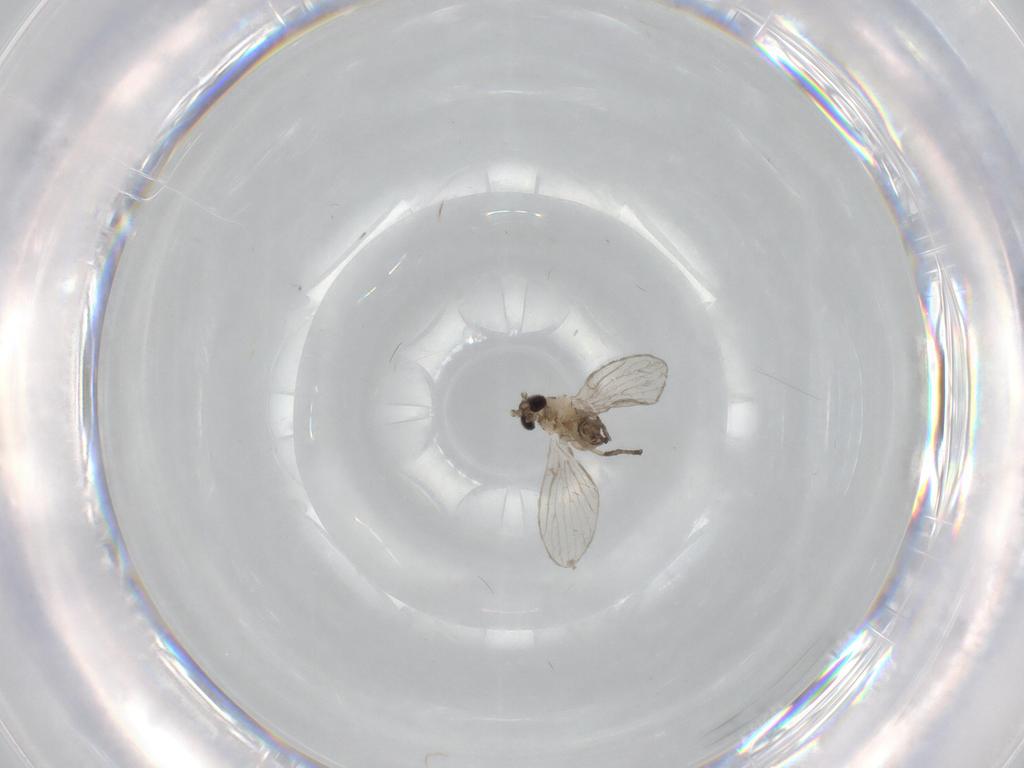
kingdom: Animalia
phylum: Arthropoda
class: Insecta
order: Diptera
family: Psychodidae
